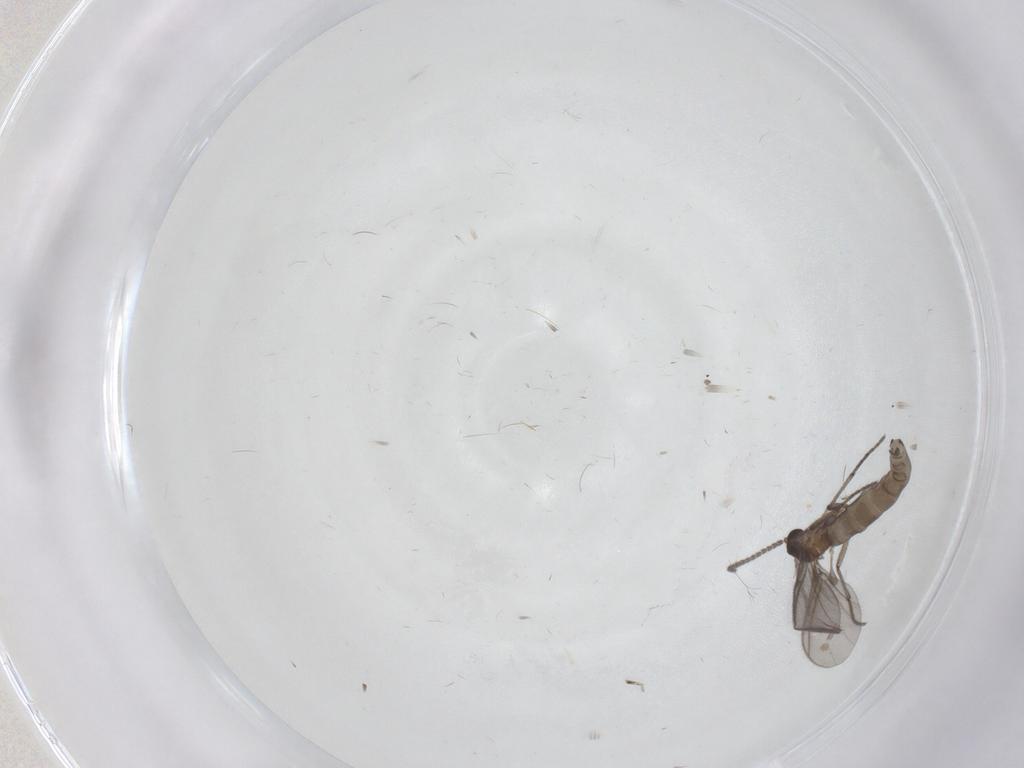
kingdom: Animalia
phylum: Arthropoda
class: Insecta
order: Diptera
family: Sciaridae
